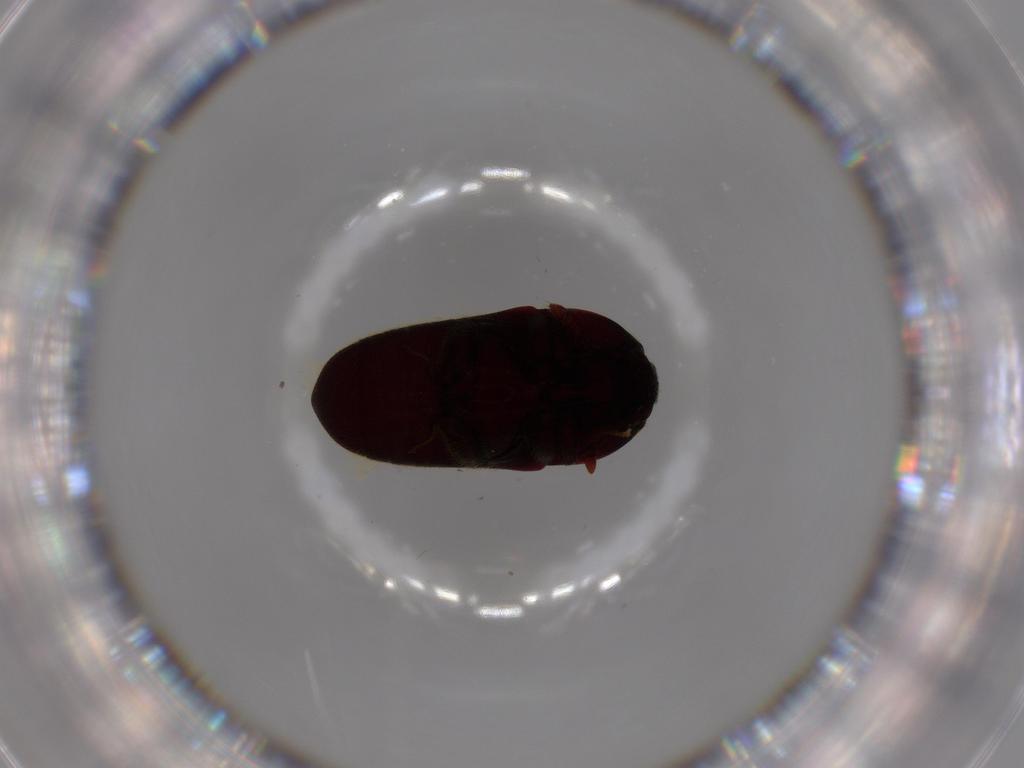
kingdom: Animalia
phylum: Arthropoda
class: Insecta
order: Coleoptera
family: Throscidae
